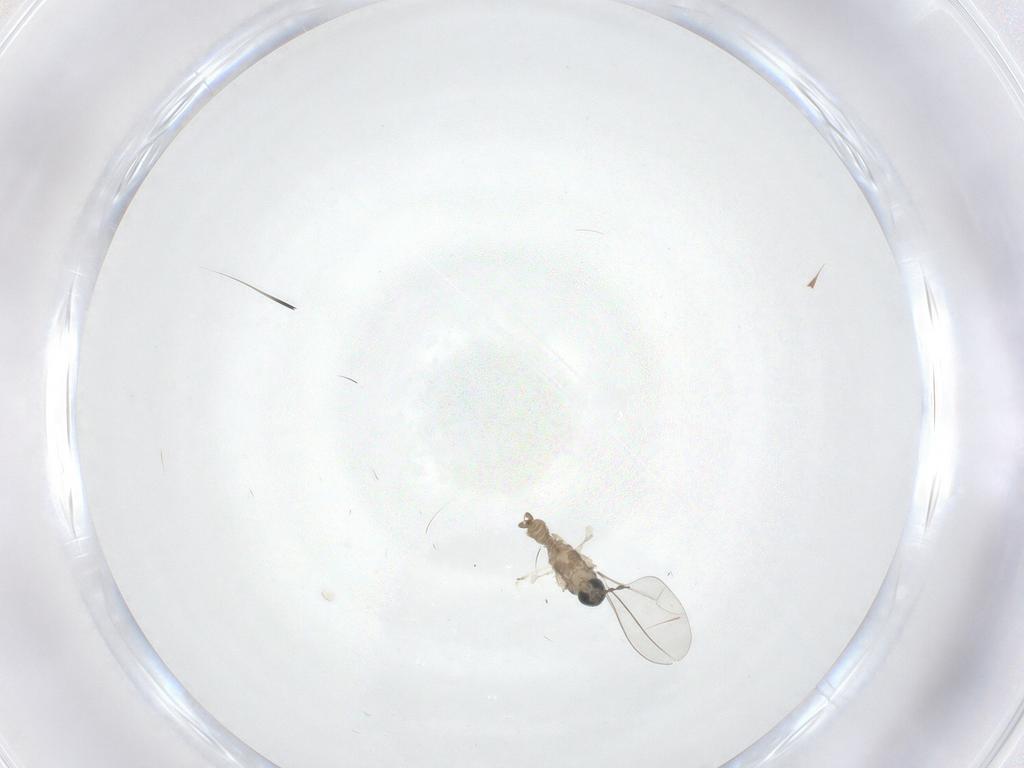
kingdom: Animalia
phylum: Arthropoda
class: Insecta
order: Diptera
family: Cecidomyiidae
